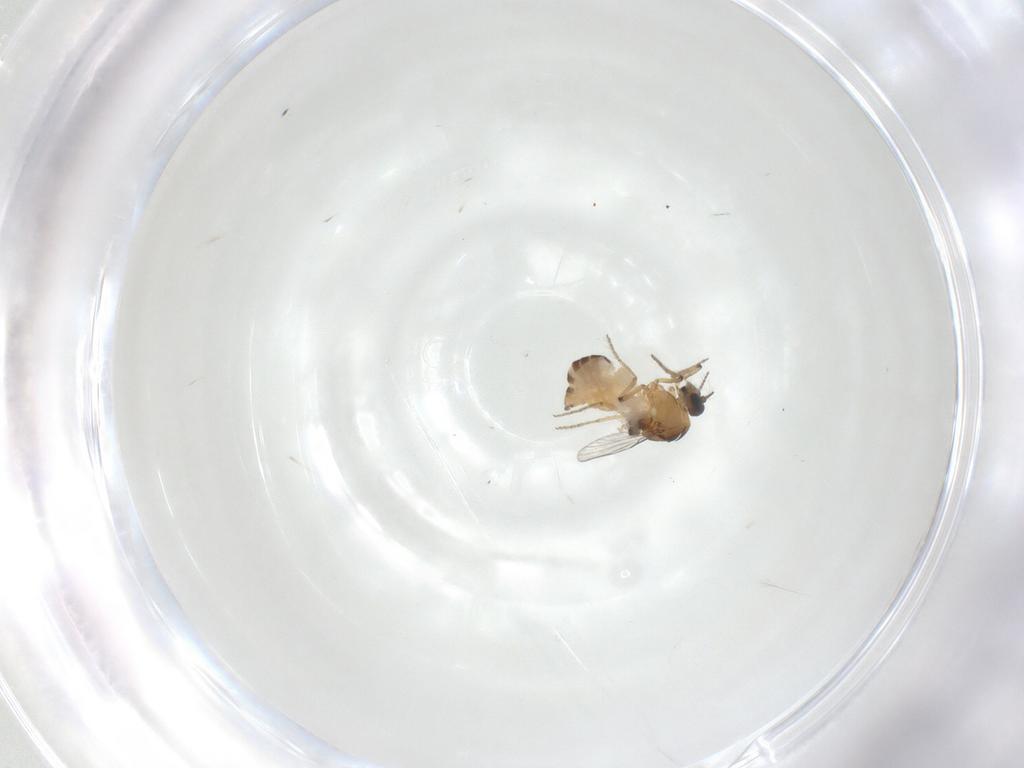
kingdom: Animalia
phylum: Arthropoda
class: Insecta
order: Diptera
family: Ceratopogonidae
